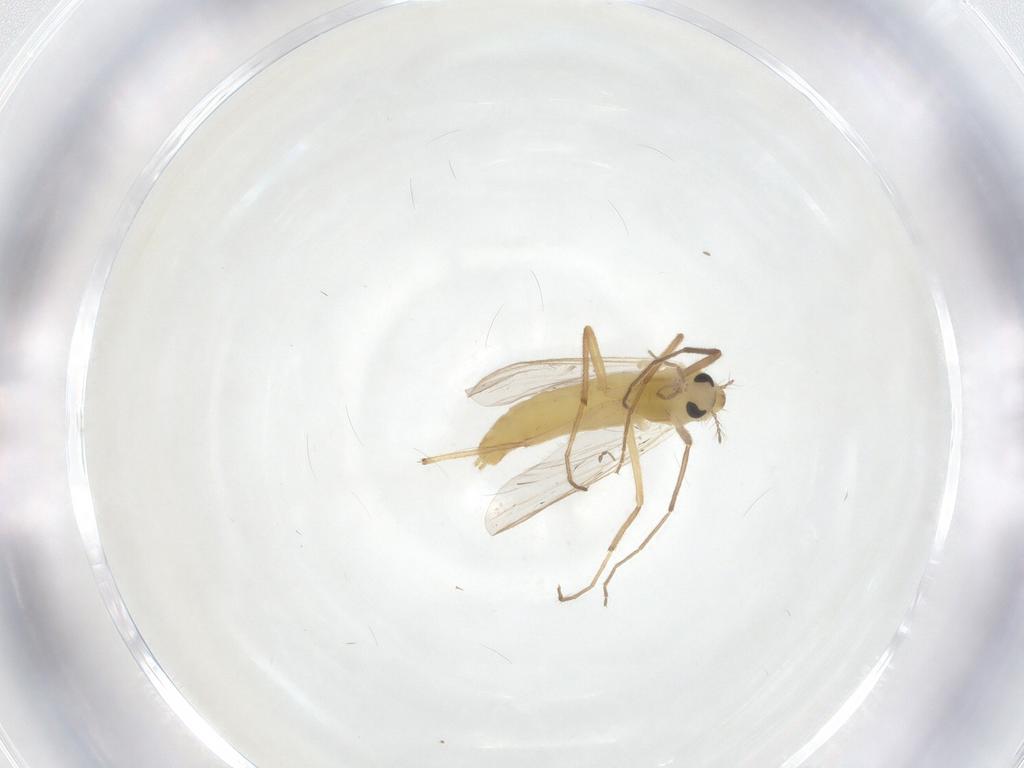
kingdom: Animalia
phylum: Arthropoda
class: Insecta
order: Diptera
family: Chironomidae
